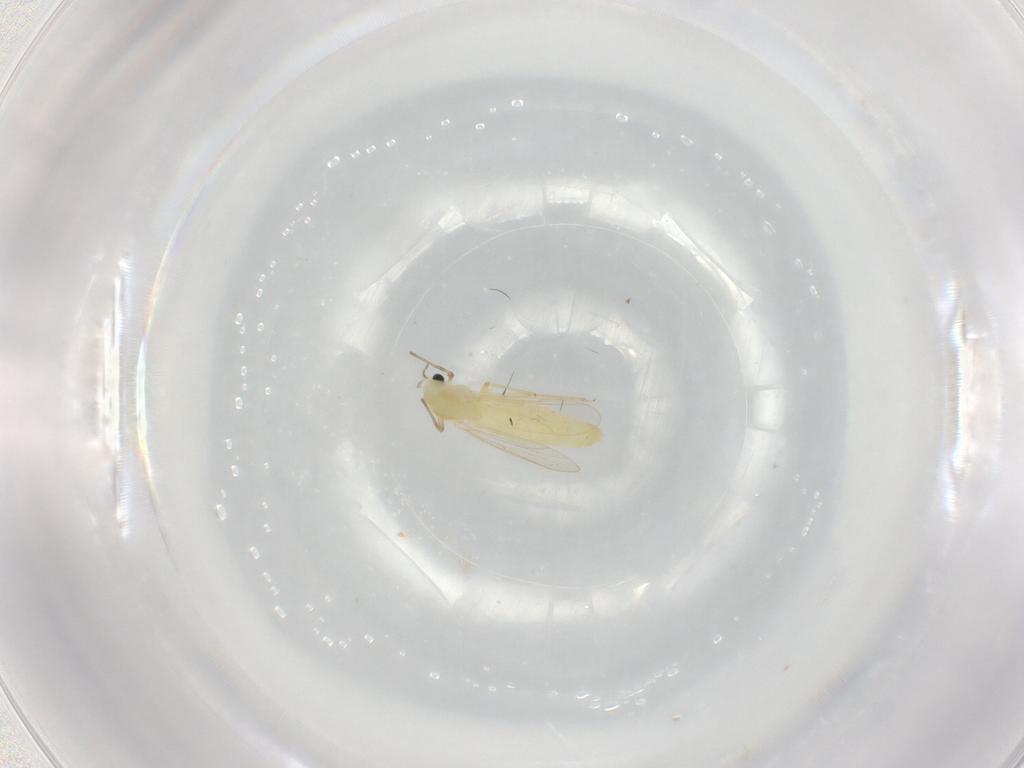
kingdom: Animalia
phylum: Arthropoda
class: Insecta
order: Diptera
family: Chironomidae
